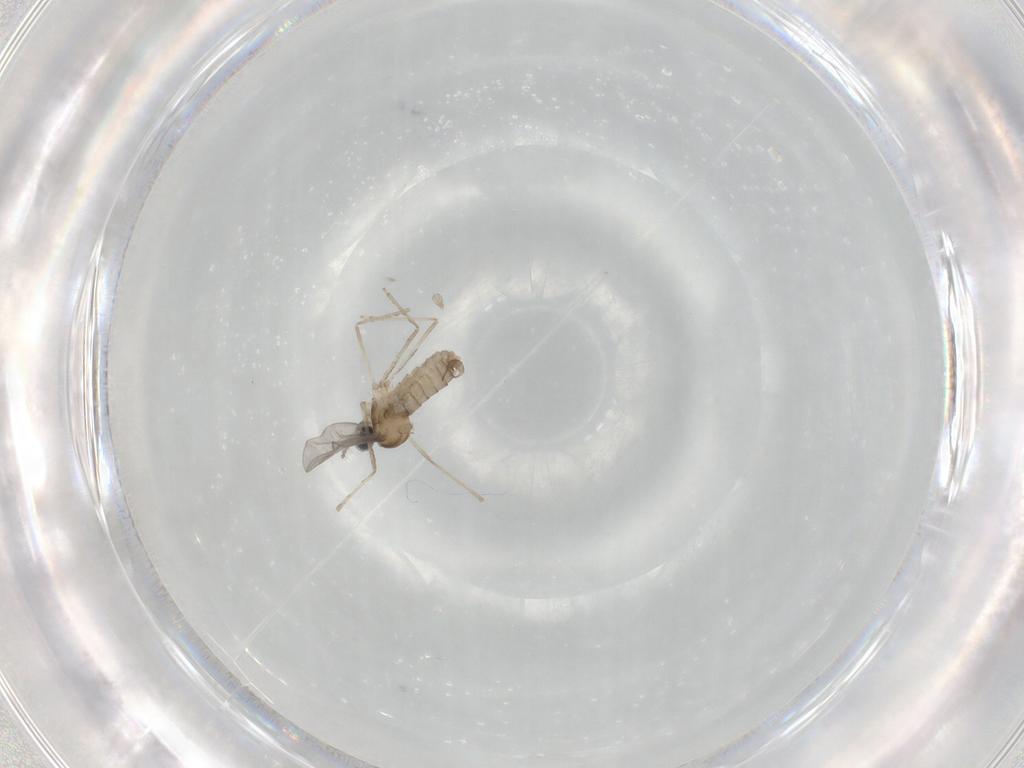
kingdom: Animalia
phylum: Arthropoda
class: Insecta
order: Diptera
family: Cecidomyiidae
